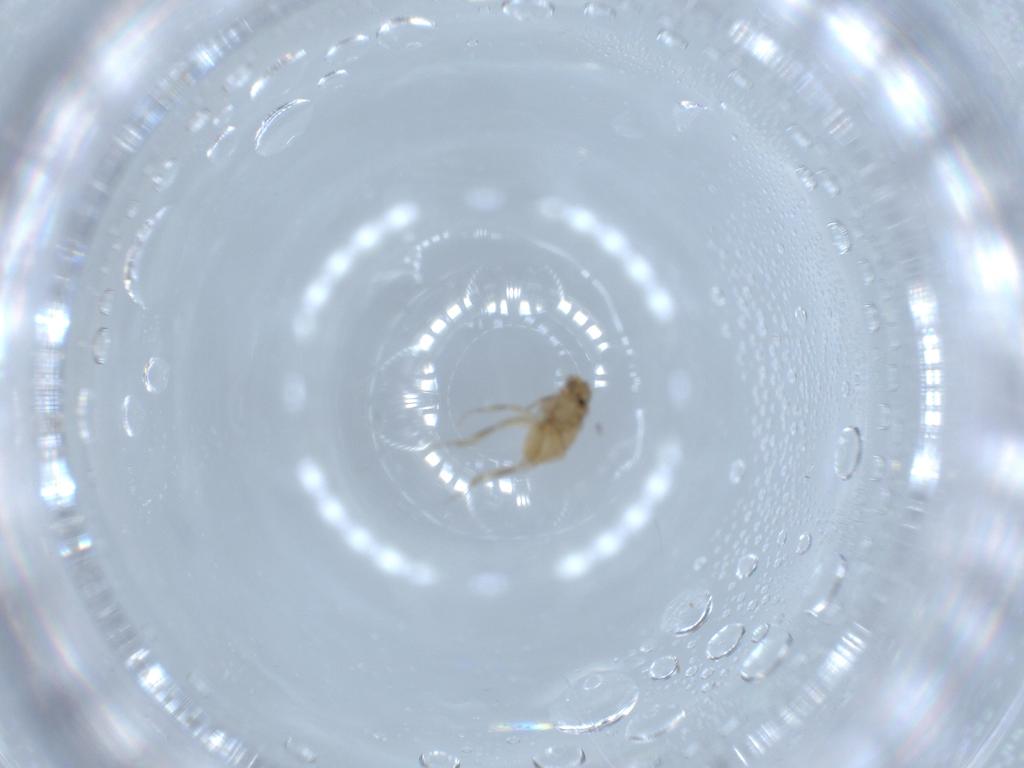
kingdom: Animalia
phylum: Arthropoda
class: Insecta
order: Diptera
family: Phoridae
